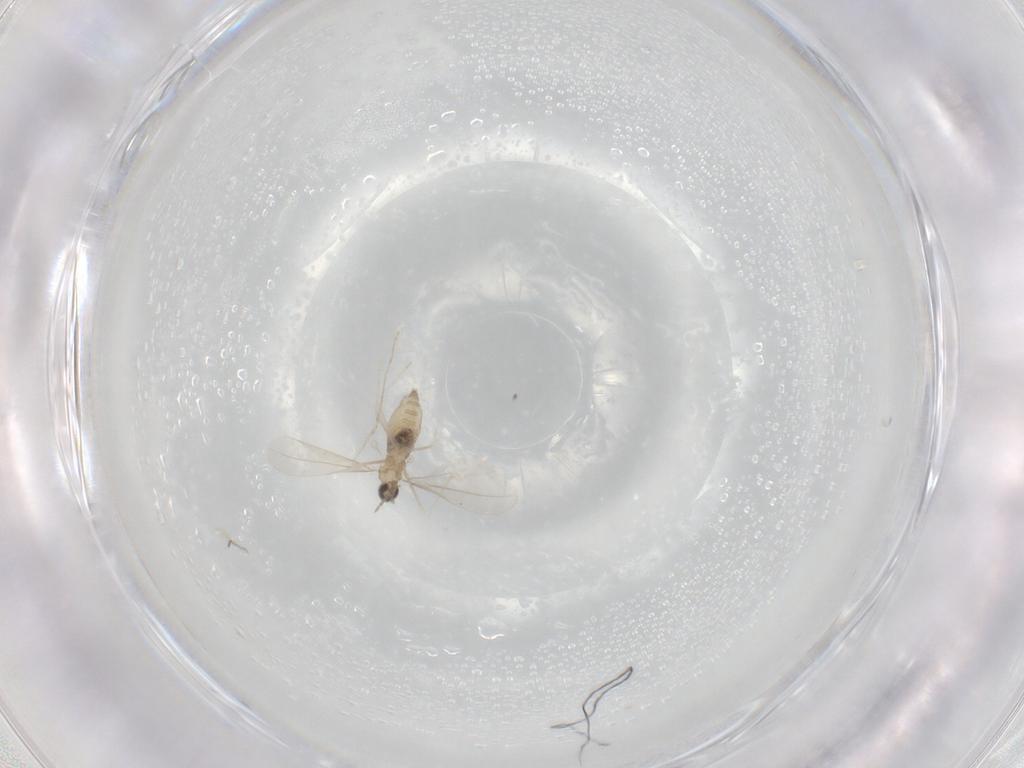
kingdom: Animalia
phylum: Arthropoda
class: Insecta
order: Diptera
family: Cecidomyiidae
